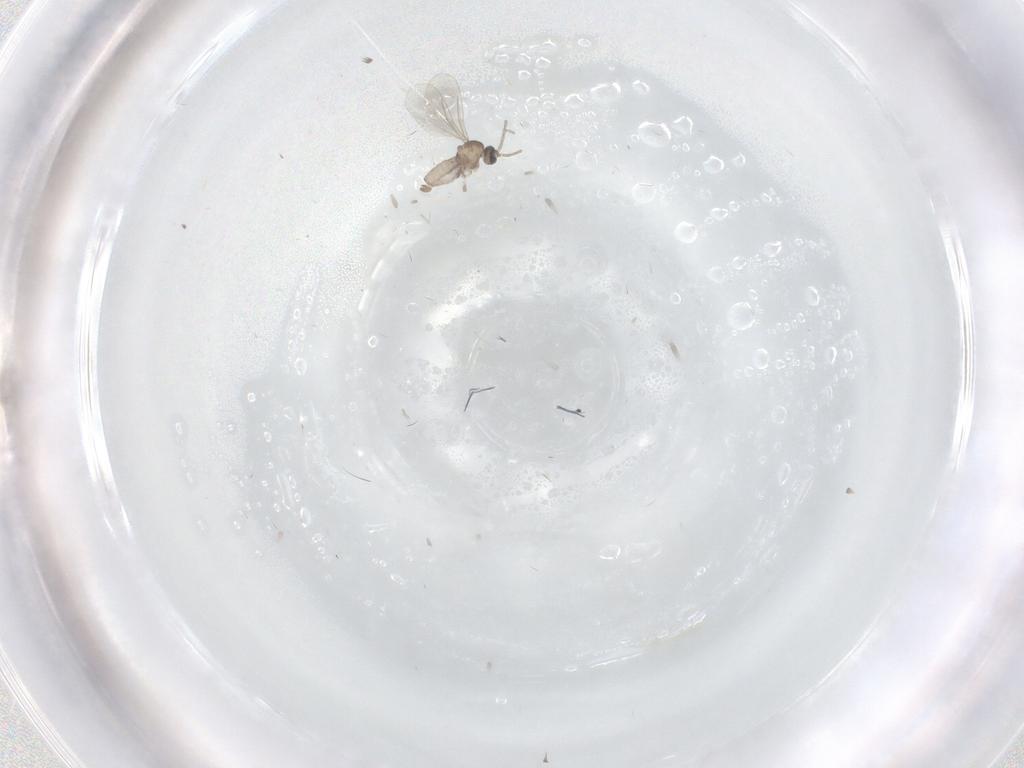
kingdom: Animalia
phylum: Arthropoda
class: Insecta
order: Diptera
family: Cecidomyiidae
